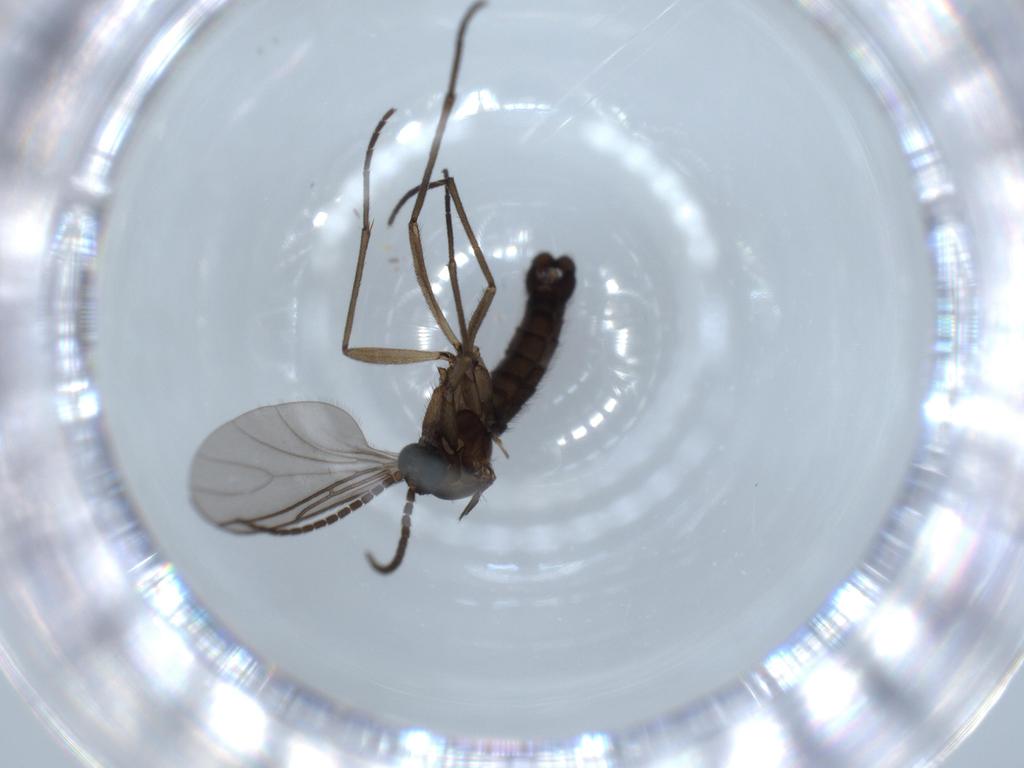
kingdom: Animalia
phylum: Arthropoda
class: Insecta
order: Diptera
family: Sciaridae
